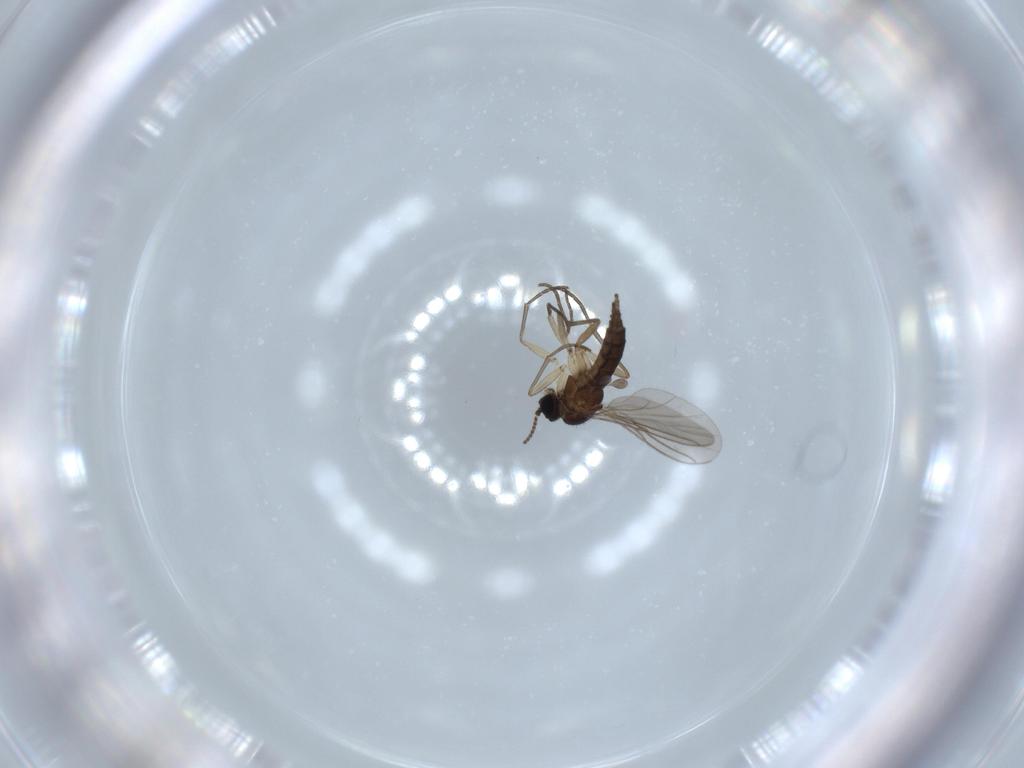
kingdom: Animalia
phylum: Arthropoda
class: Insecta
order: Diptera
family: Sciaridae
